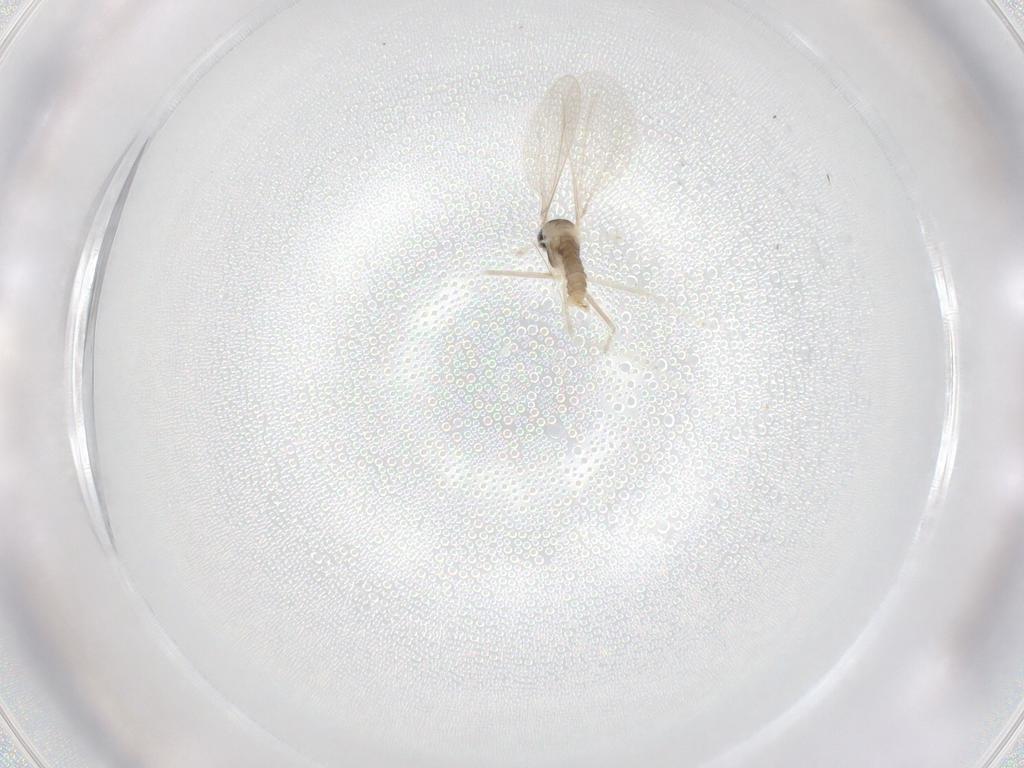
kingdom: Animalia
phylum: Arthropoda
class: Insecta
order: Diptera
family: Cecidomyiidae
